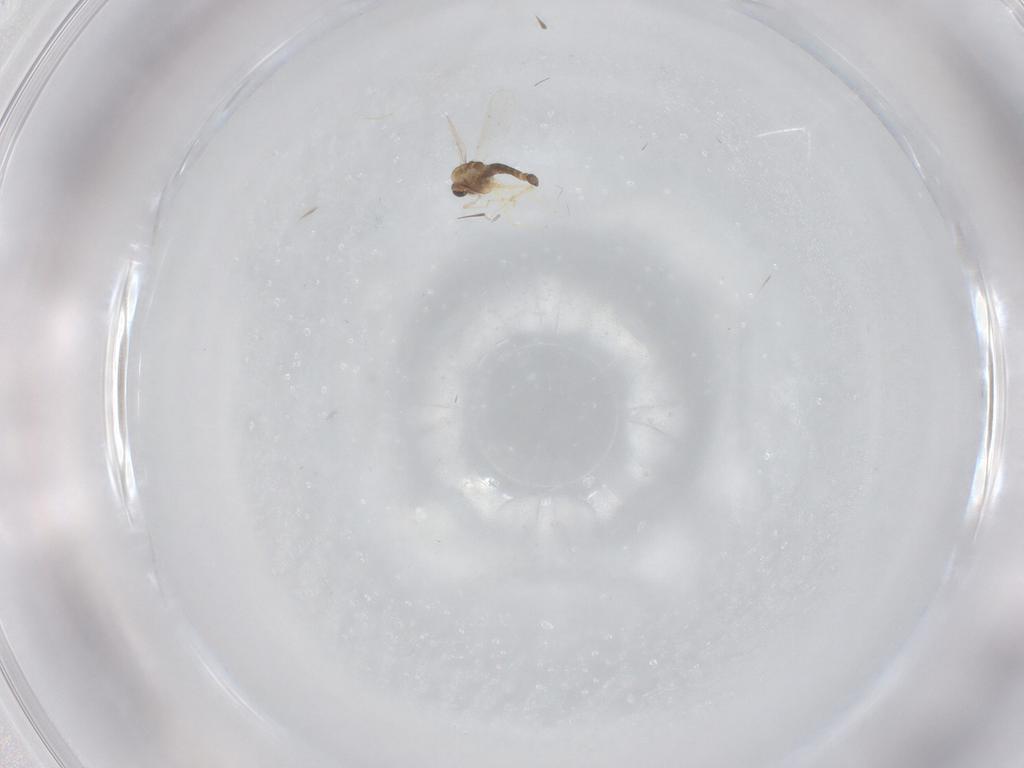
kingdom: Animalia
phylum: Arthropoda
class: Insecta
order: Diptera
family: Chironomidae
